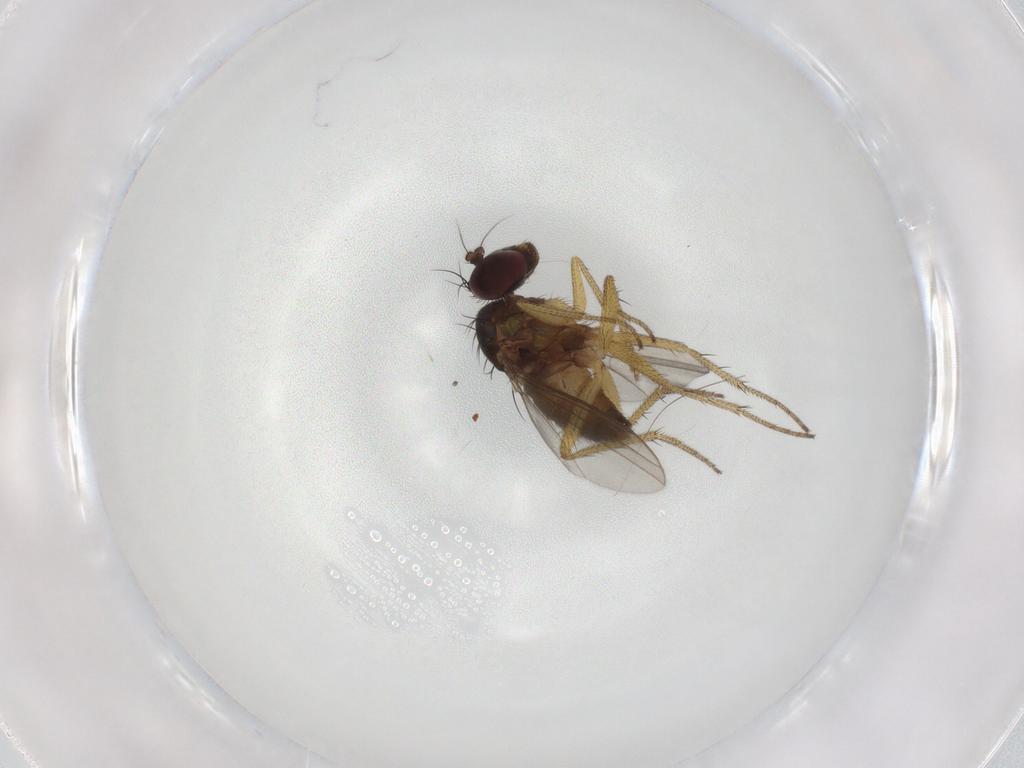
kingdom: Animalia
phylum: Arthropoda
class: Insecta
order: Diptera
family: Dolichopodidae
